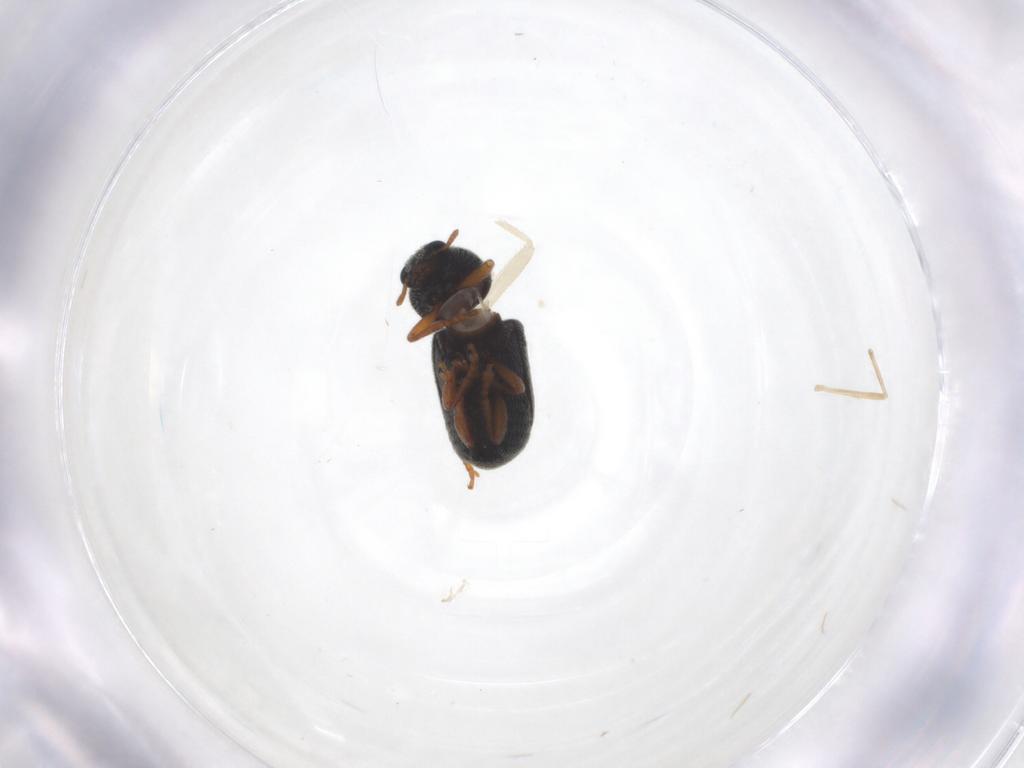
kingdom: Animalia
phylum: Arthropoda
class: Insecta
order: Coleoptera
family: Anthribidae
